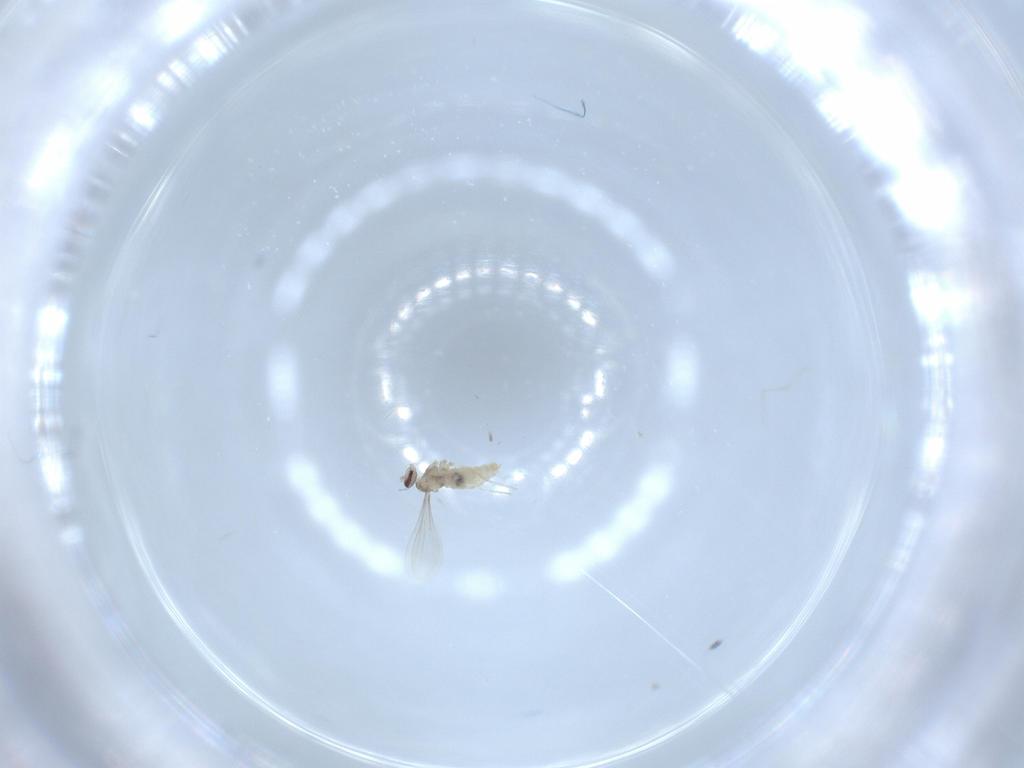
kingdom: Animalia
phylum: Arthropoda
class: Insecta
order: Diptera
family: Cecidomyiidae
